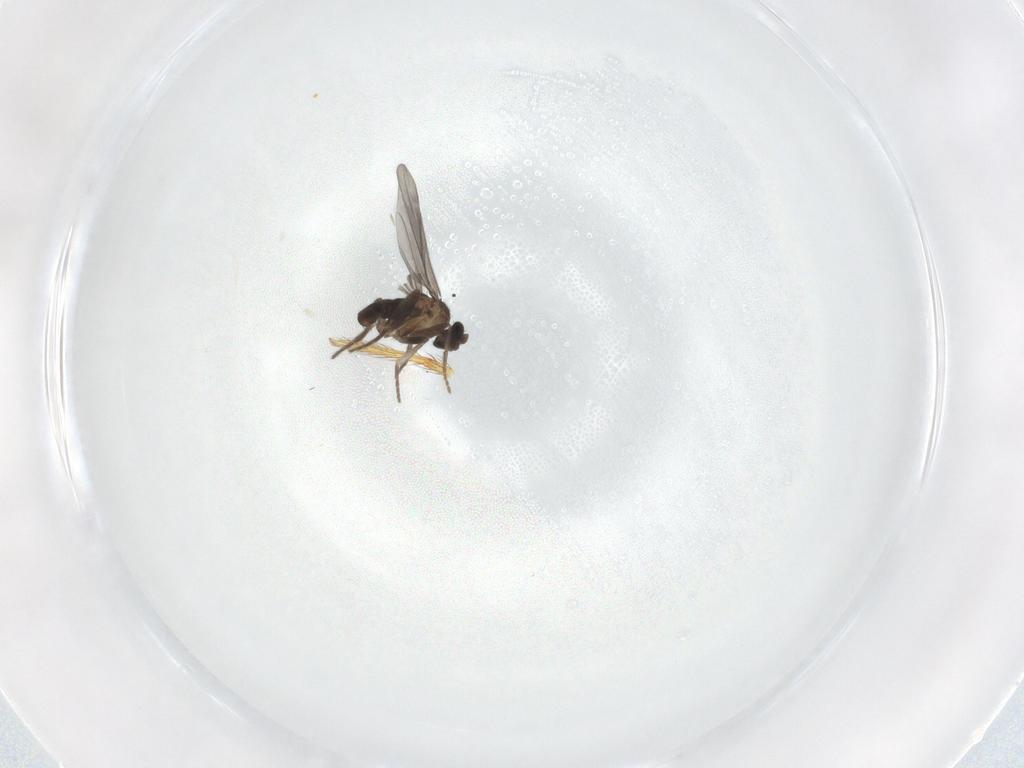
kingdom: Animalia
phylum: Arthropoda
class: Insecta
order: Diptera
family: Phoridae
